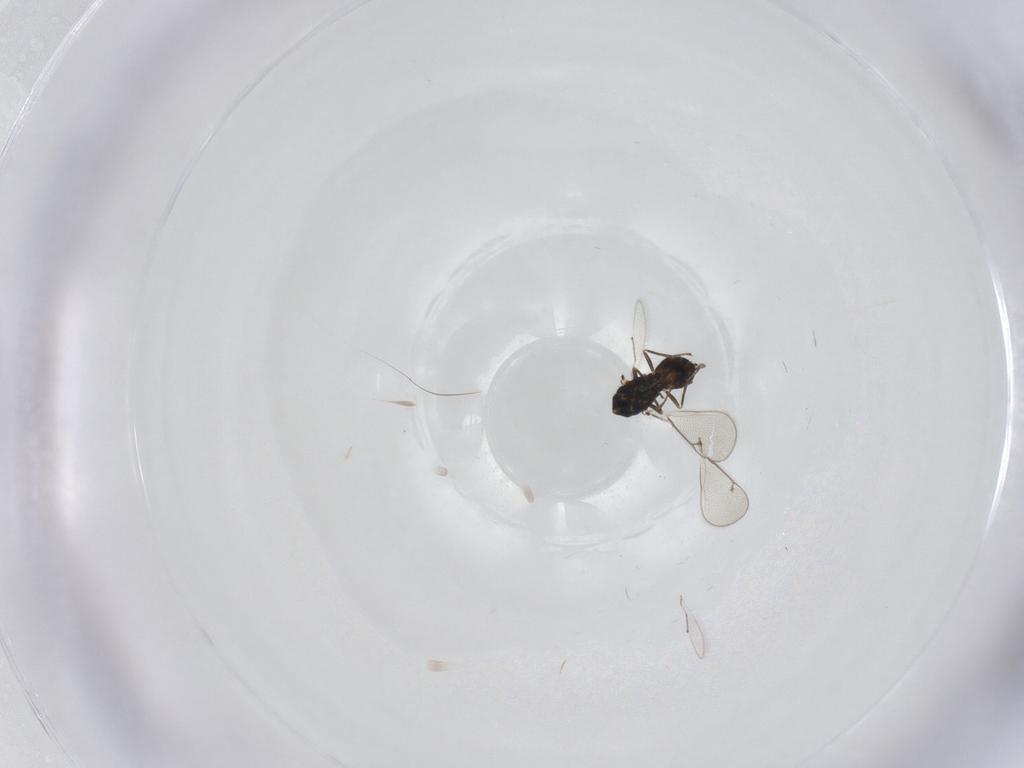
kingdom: Animalia
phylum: Arthropoda
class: Insecta
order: Hymenoptera
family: Eulophidae
